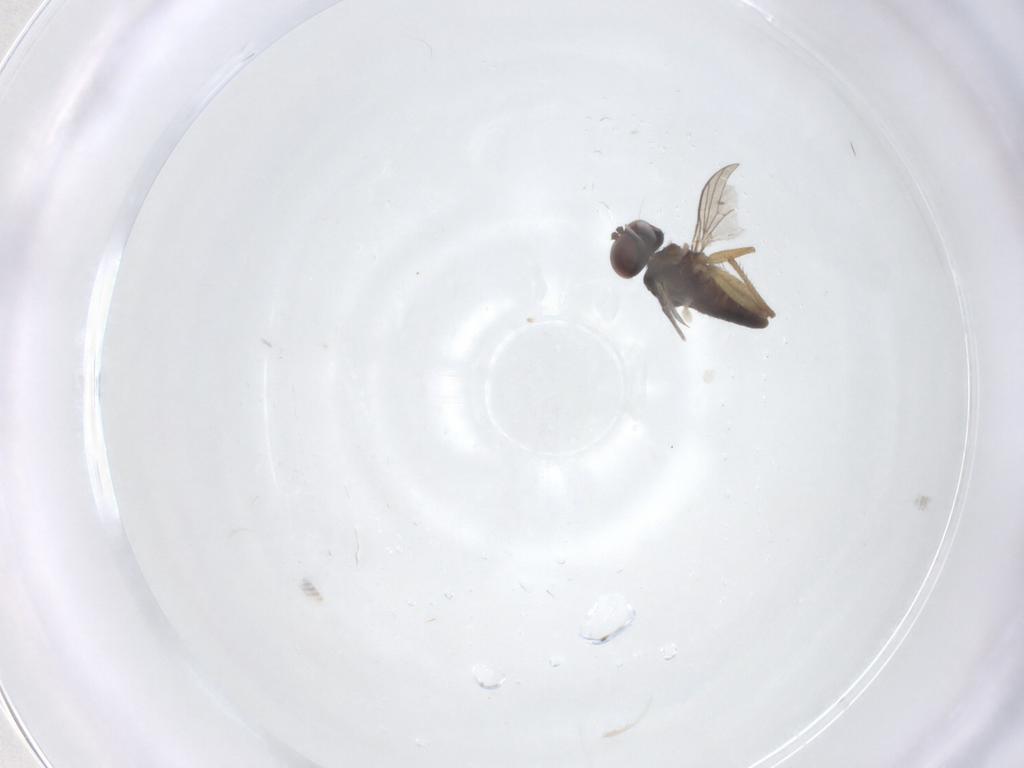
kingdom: Animalia
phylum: Arthropoda
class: Insecta
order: Diptera
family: Dolichopodidae
